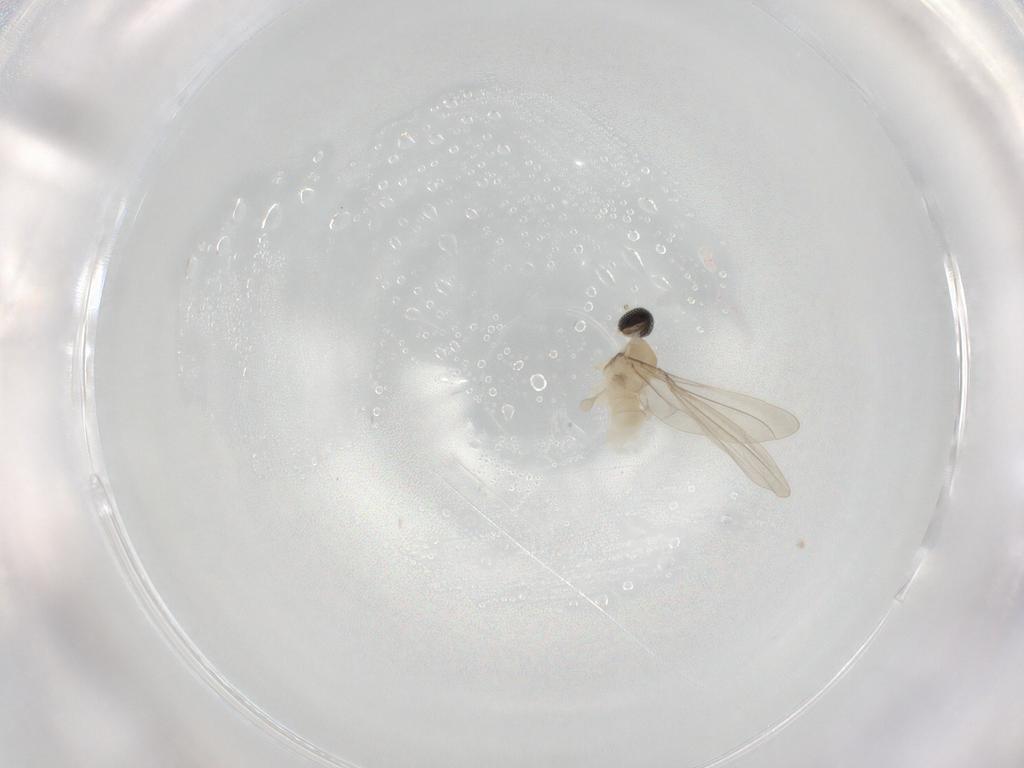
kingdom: Animalia
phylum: Arthropoda
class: Insecta
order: Diptera
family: Cecidomyiidae
